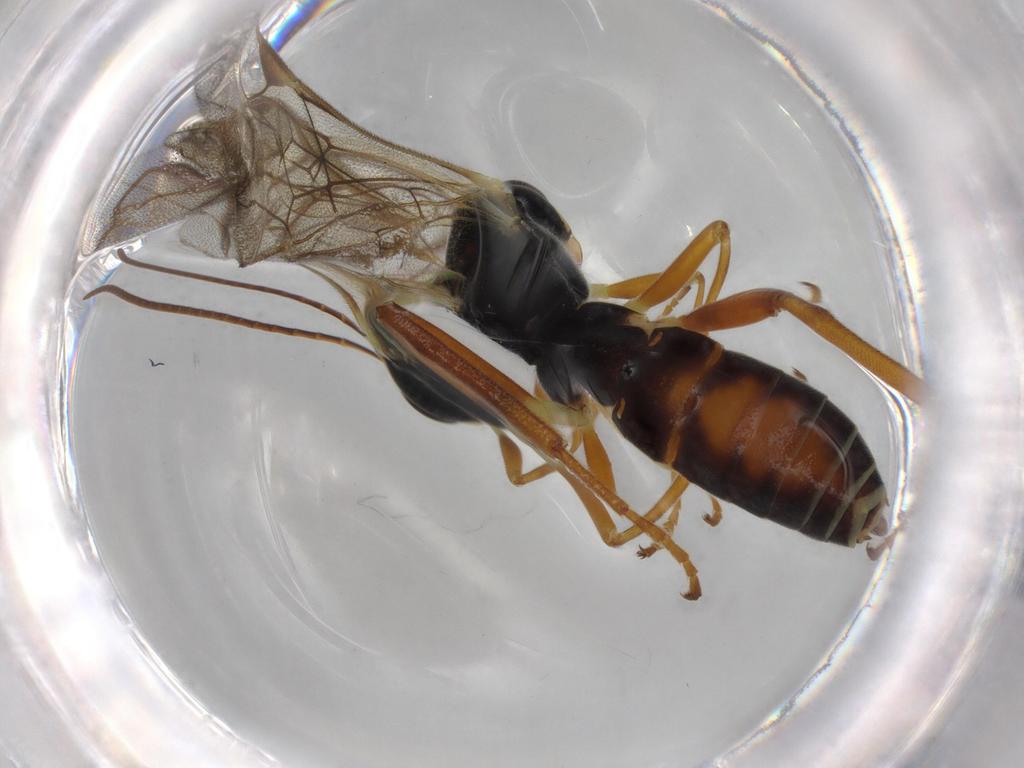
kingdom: Animalia
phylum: Arthropoda
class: Insecta
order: Hymenoptera
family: Ichneumonidae
